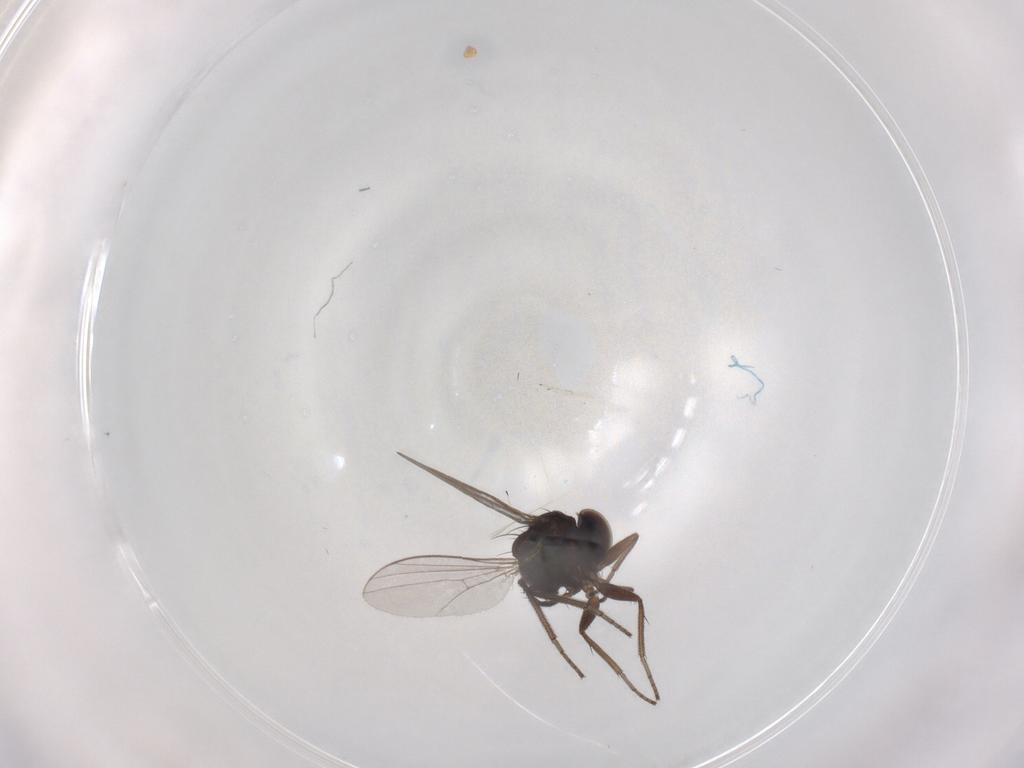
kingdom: Animalia
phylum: Arthropoda
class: Insecta
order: Diptera
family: Dolichopodidae
